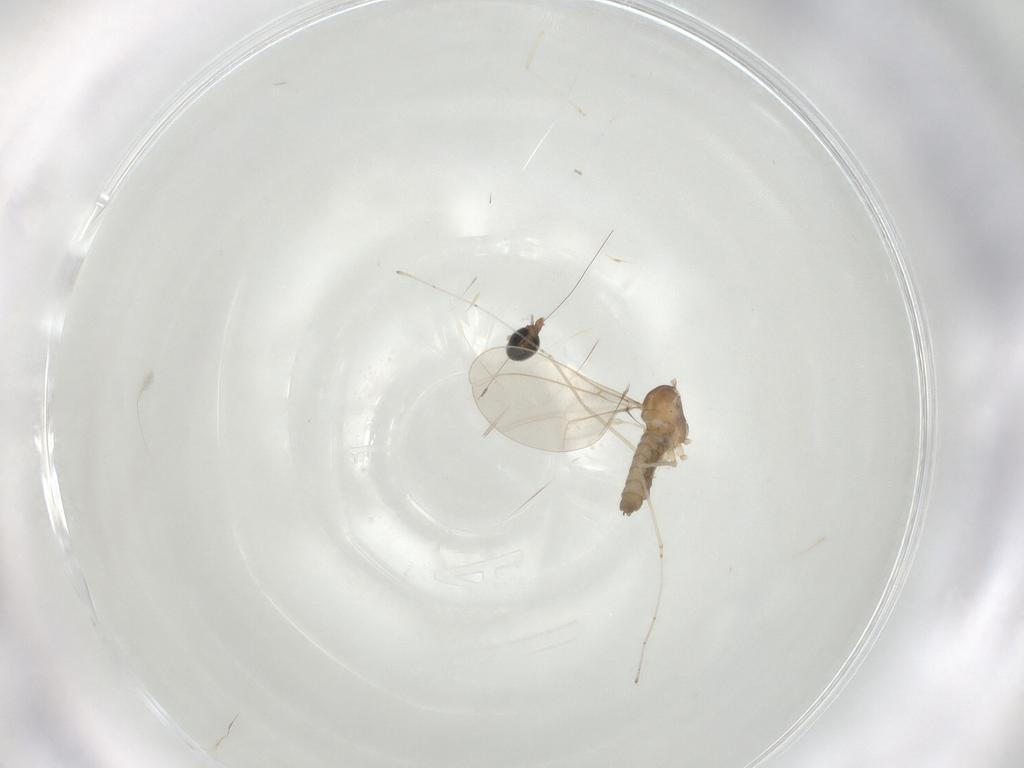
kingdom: Animalia
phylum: Arthropoda
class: Insecta
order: Diptera
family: Cecidomyiidae
